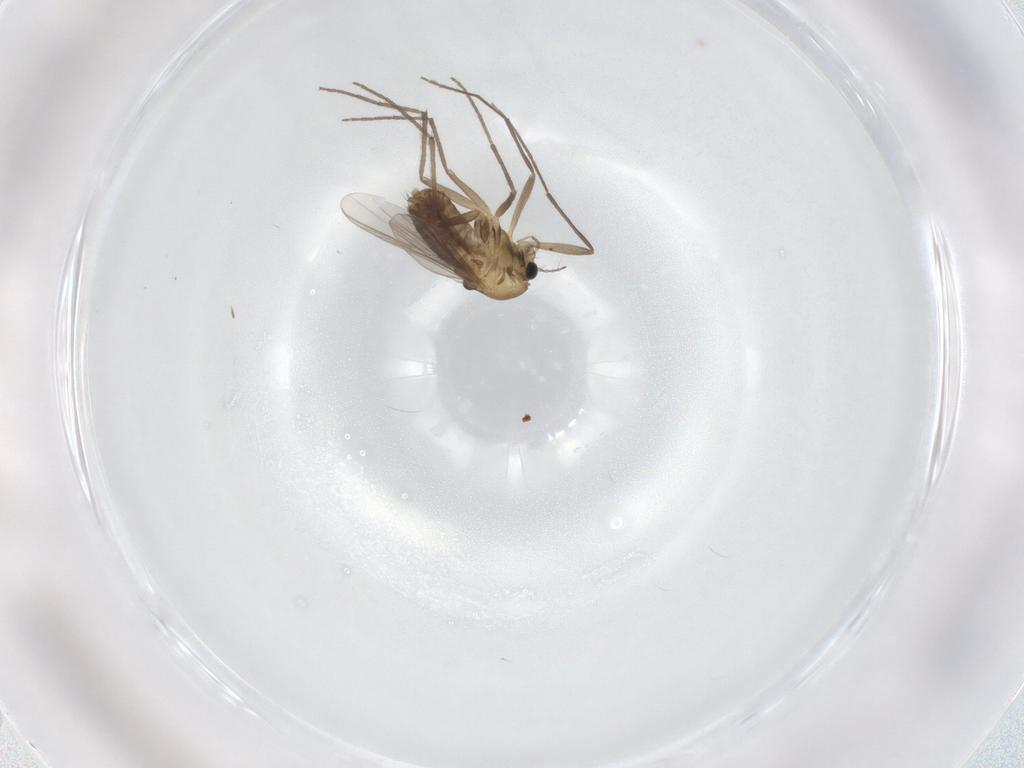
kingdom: Animalia
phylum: Arthropoda
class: Insecta
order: Diptera
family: Chironomidae
